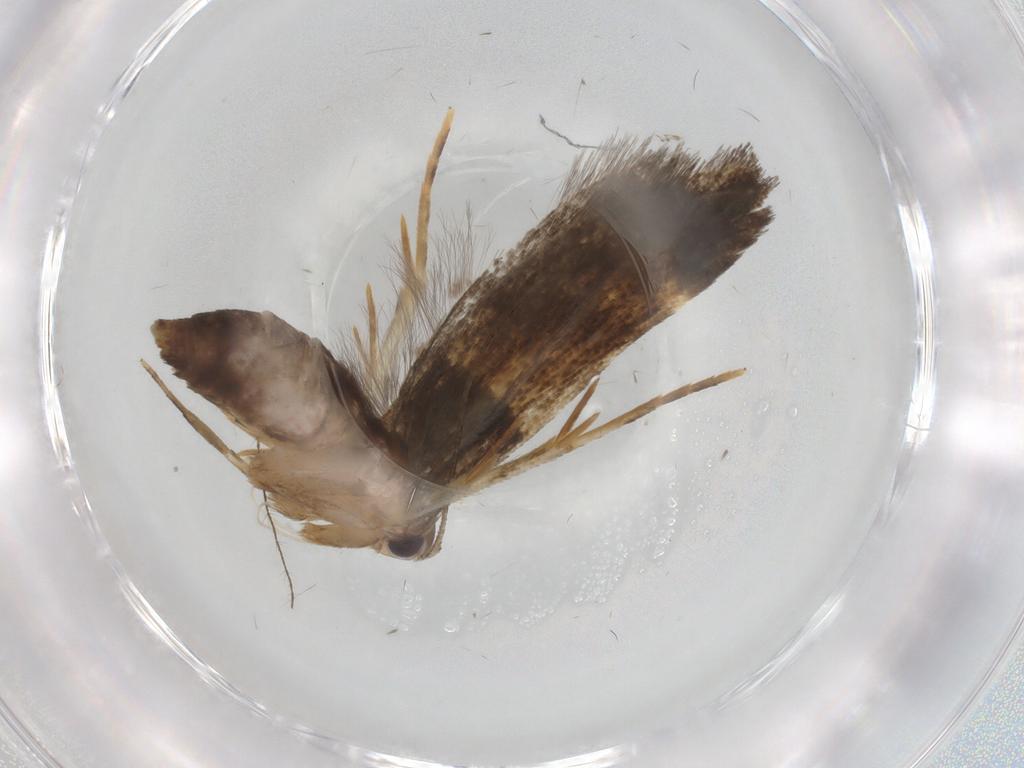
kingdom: Animalia
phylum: Arthropoda
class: Insecta
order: Lepidoptera
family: Cosmopterigidae
